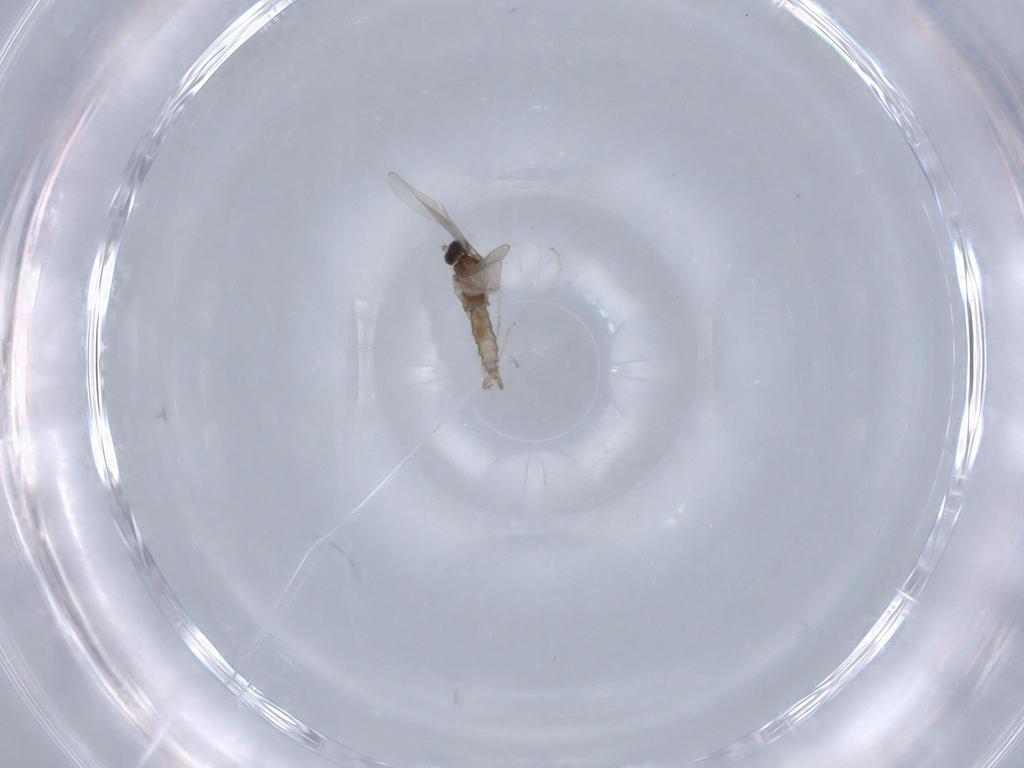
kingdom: Animalia
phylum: Arthropoda
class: Insecta
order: Diptera
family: Cecidomyiidae
